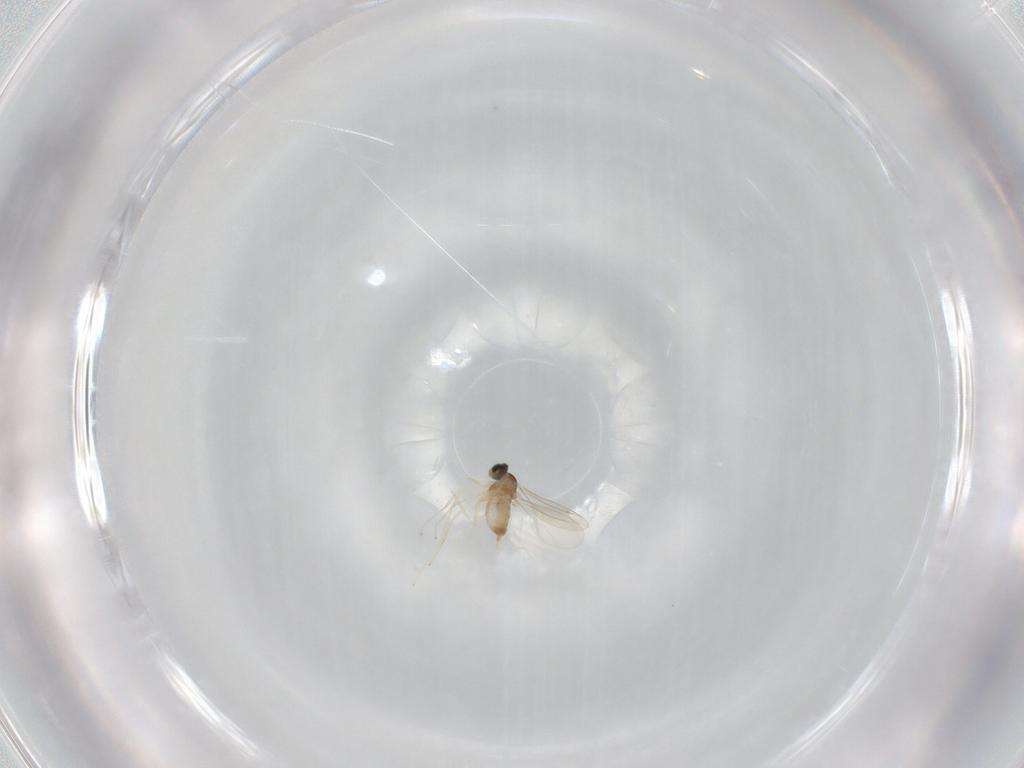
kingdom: Animalia
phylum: Arthropoda
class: Insecta
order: Diptera
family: Cecidomyiidae
